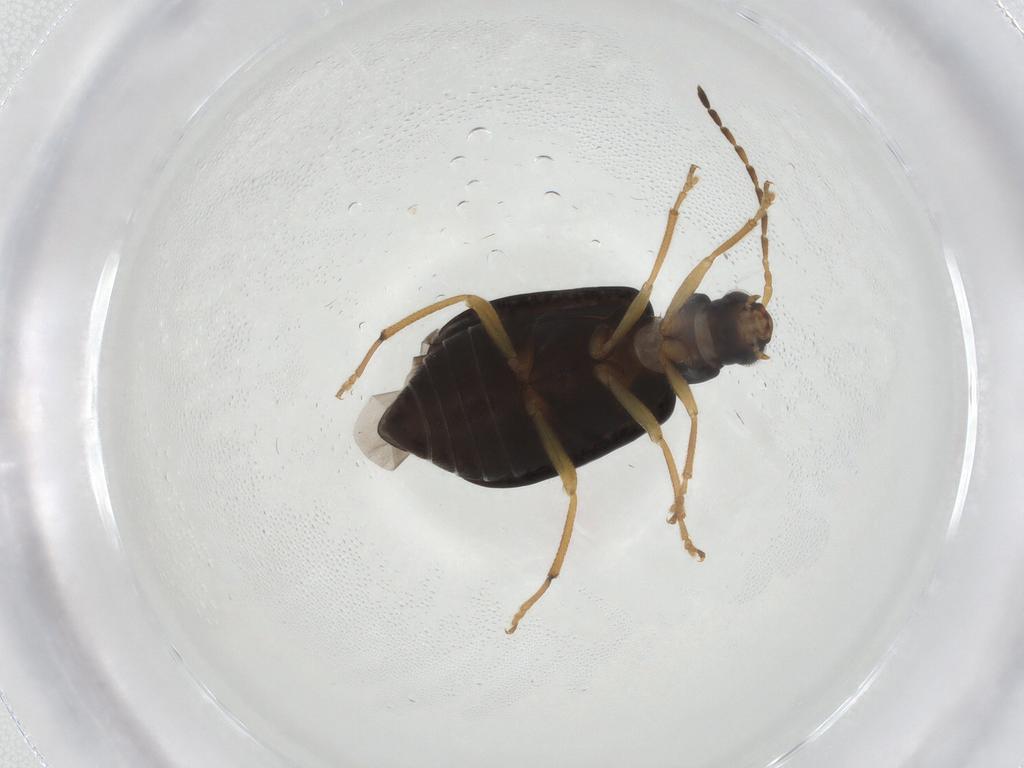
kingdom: Animalia
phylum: Arthropoda
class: Insecta
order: Coleoptera
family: Chrysomelidae
